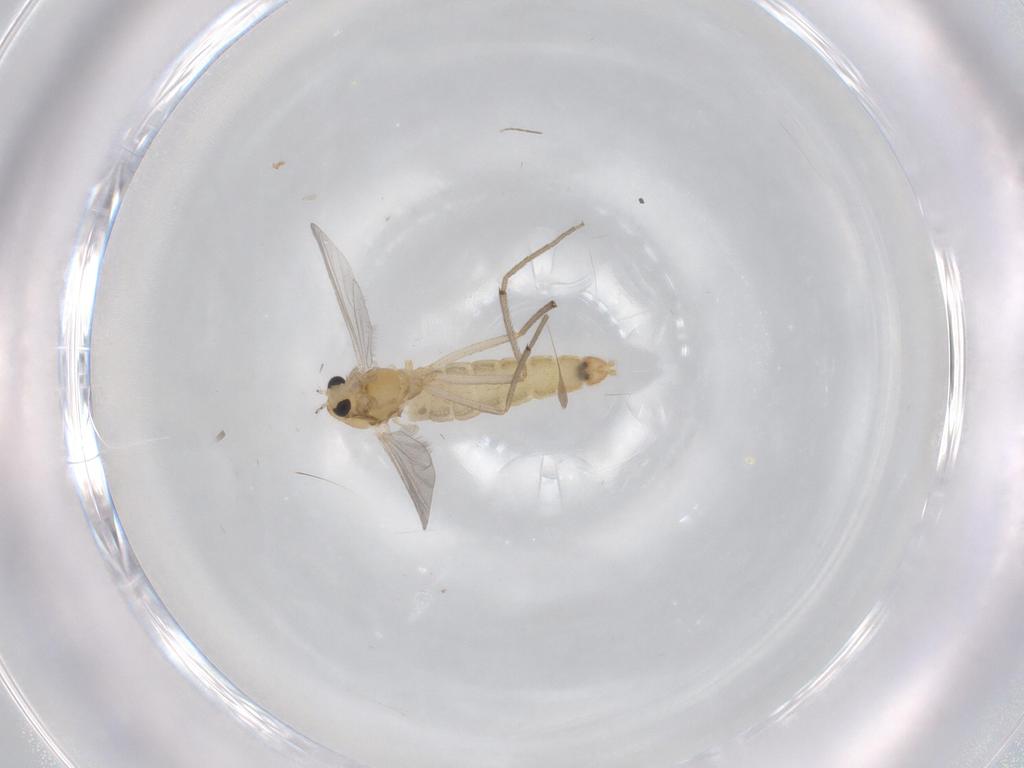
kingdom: Animalia
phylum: Arthropoda
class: Insecta
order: Diptera
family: Chironomidae
